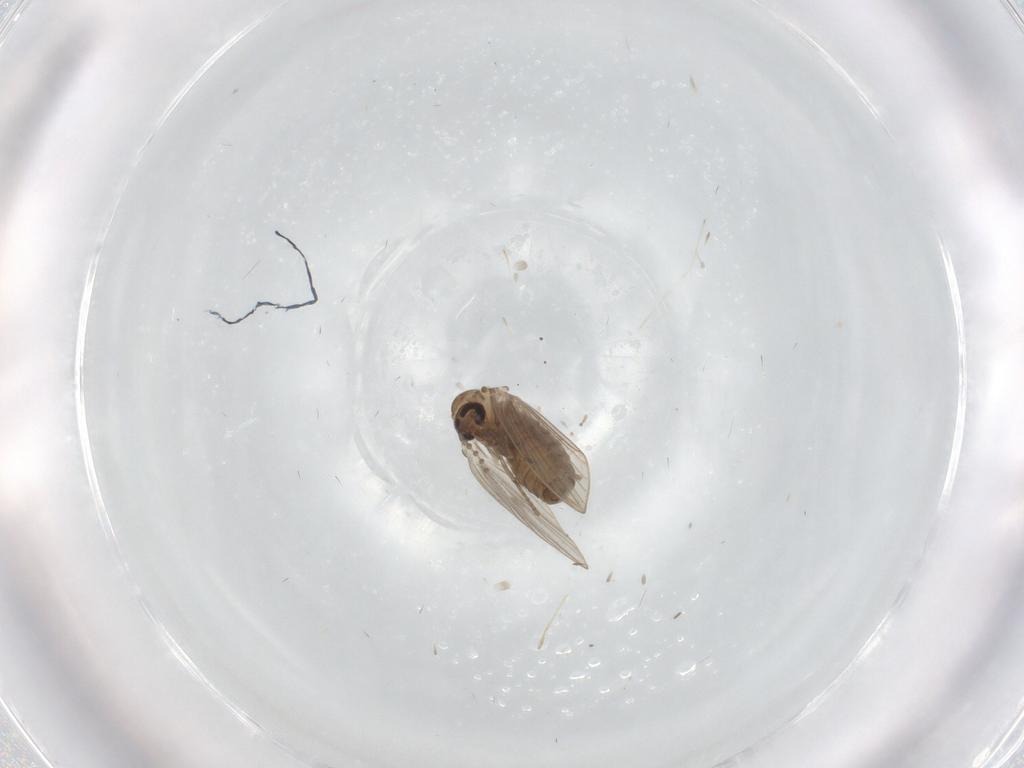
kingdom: Animalia
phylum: Arthropoda
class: Insecta
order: Diptera
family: Psychodidae
